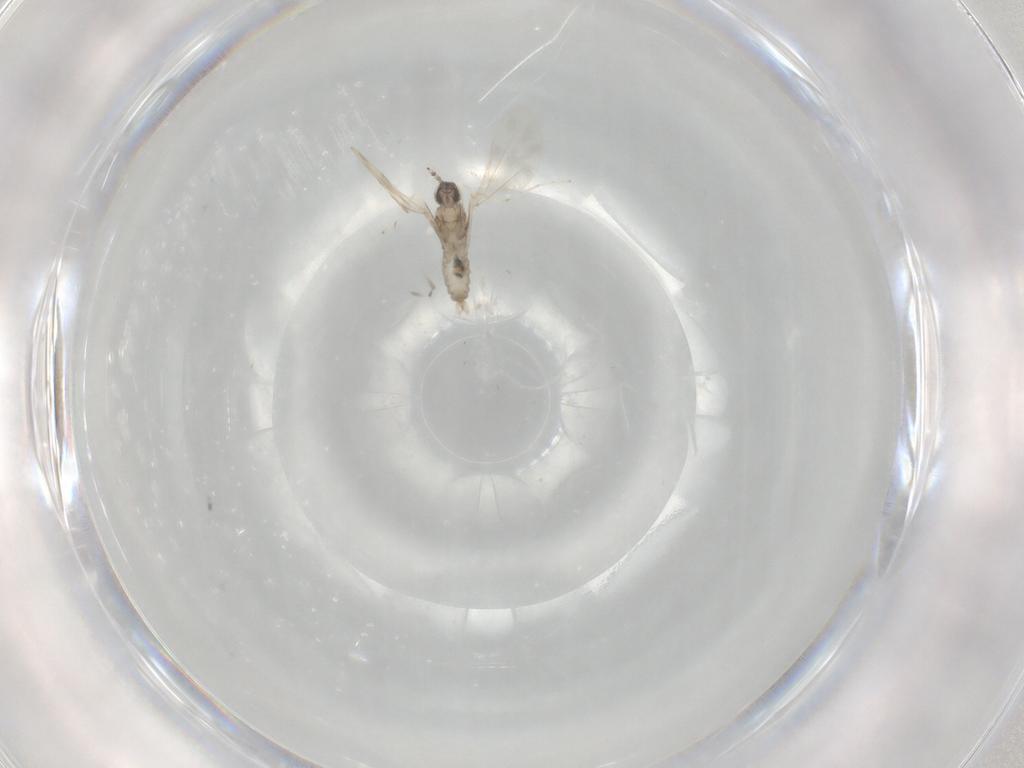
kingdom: Animalia
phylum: Arthropoda
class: Insecta
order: Diptera
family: Cecidomyiidae
